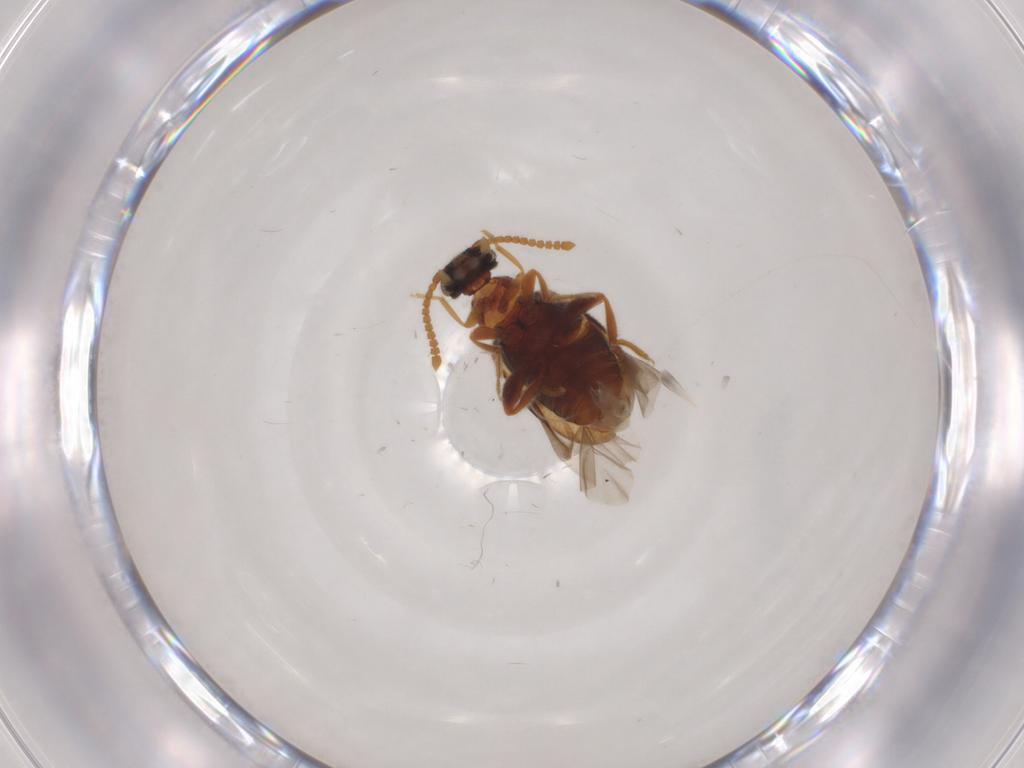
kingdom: Animalia
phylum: Arthropoda
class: Insecta
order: Coleoptera
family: Aderidae
